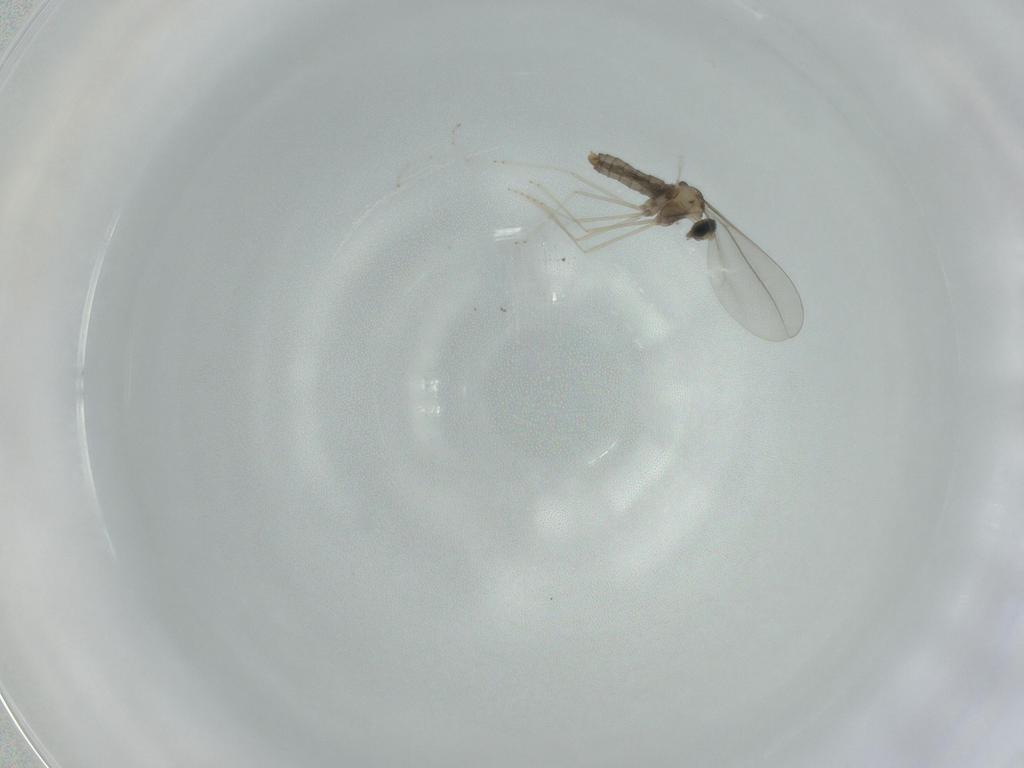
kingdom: Animalia
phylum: Arthropoda
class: Insecta
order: Diptera
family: Cecidomyiidae
